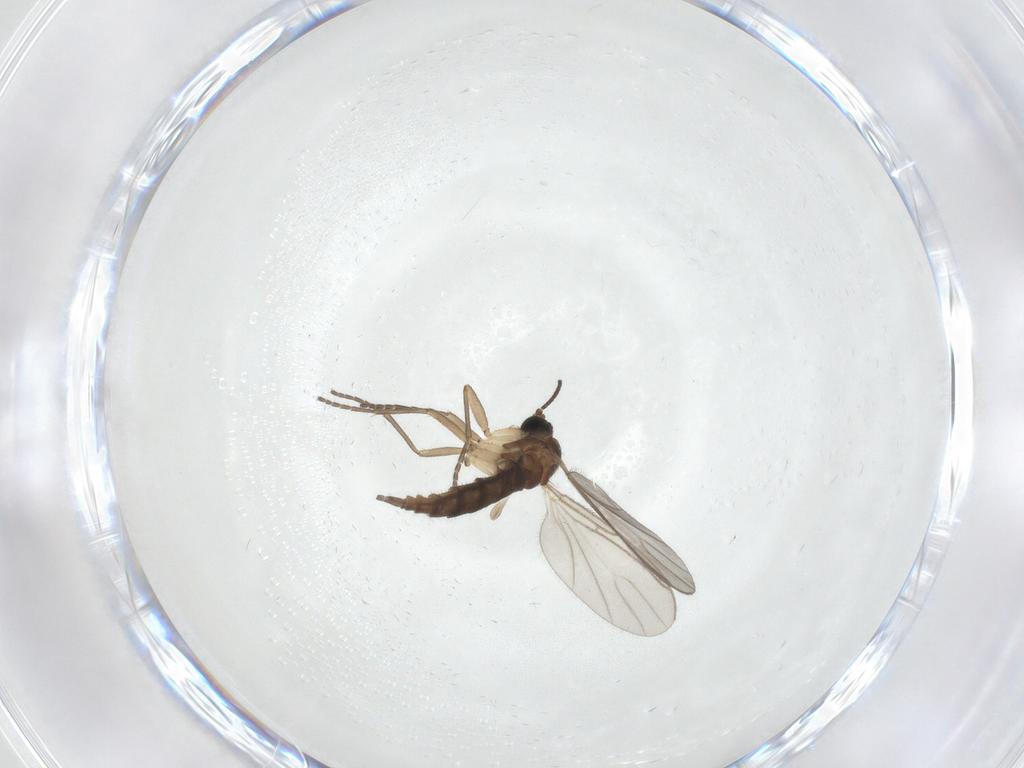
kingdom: Animalia
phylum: Arthropoda
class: Insecta
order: Diptera
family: Sciaridae
